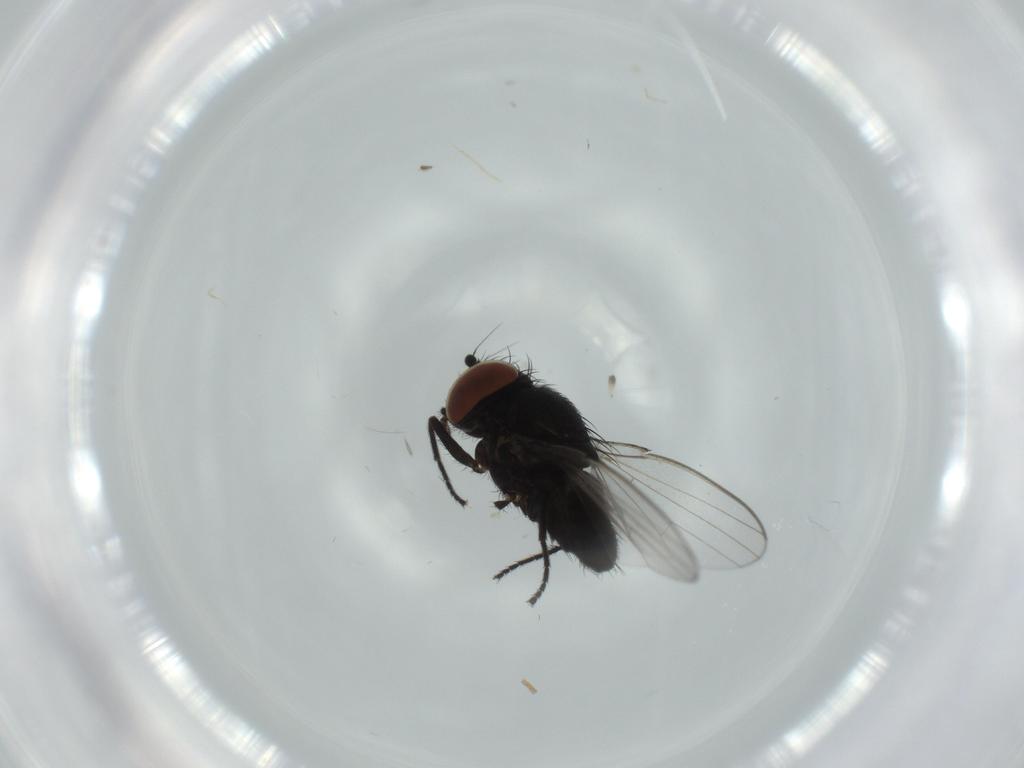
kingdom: Animalia
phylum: Arthropoda
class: Insecta
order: Diptera
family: Milichiidae
